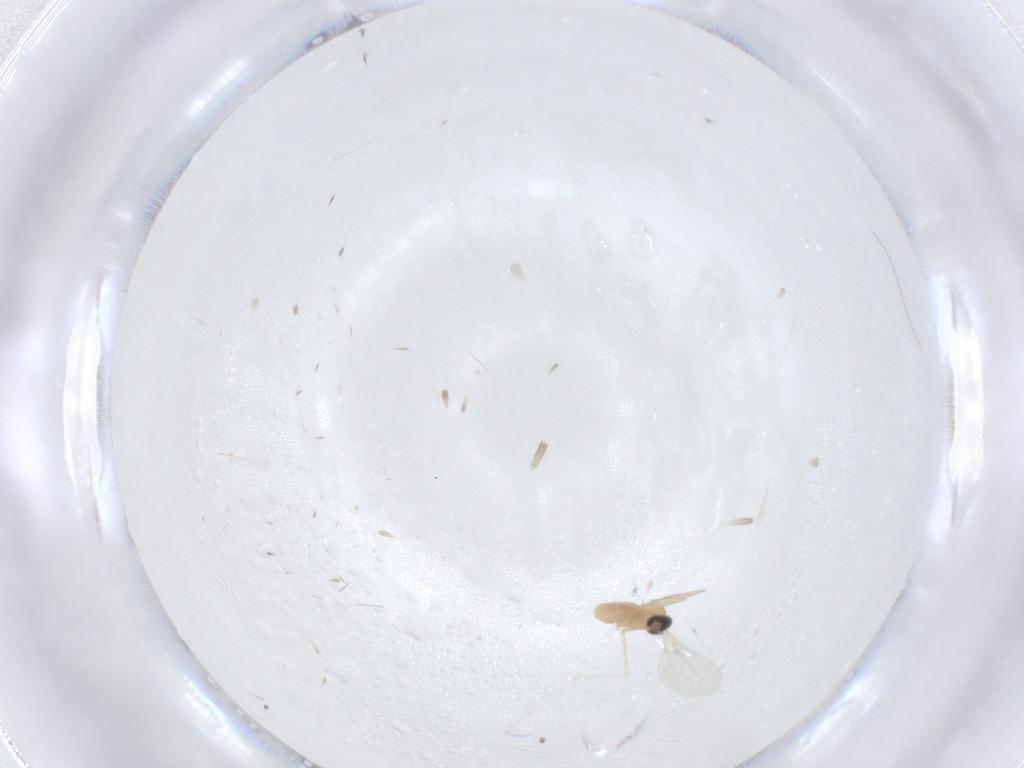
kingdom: Animalia
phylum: Arthropoda
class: Insecta
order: Diptera
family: Cecidomyiidae
